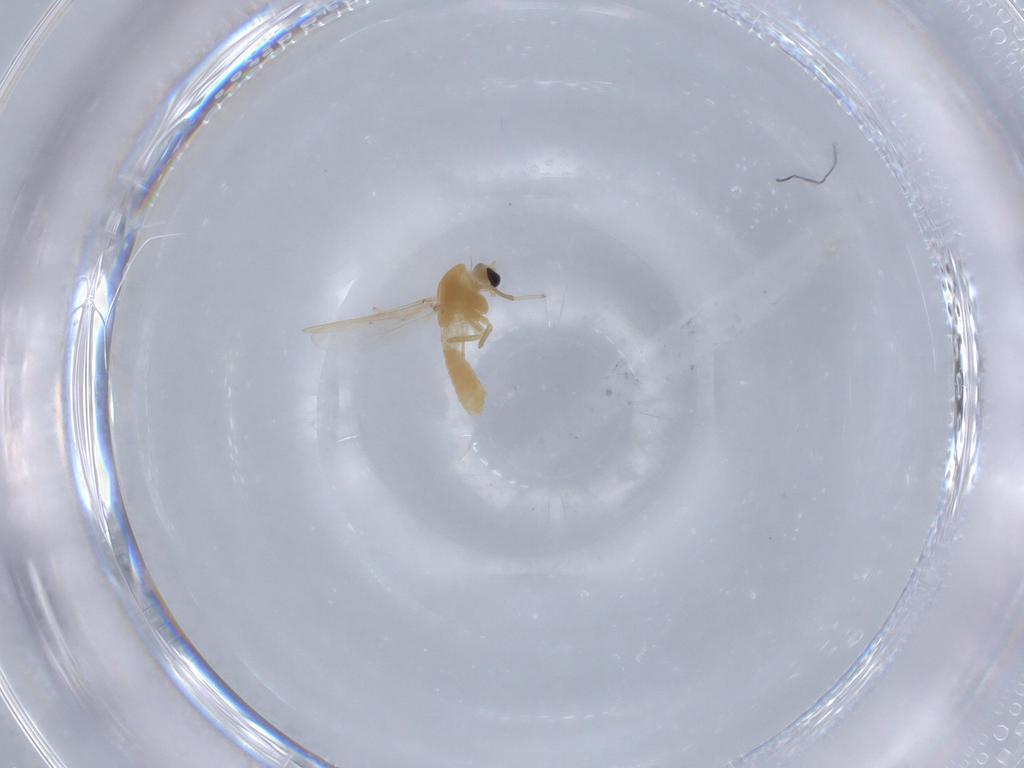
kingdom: Animalia
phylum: Arthropoda
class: Insecta
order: Diptera
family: Chironomidae
